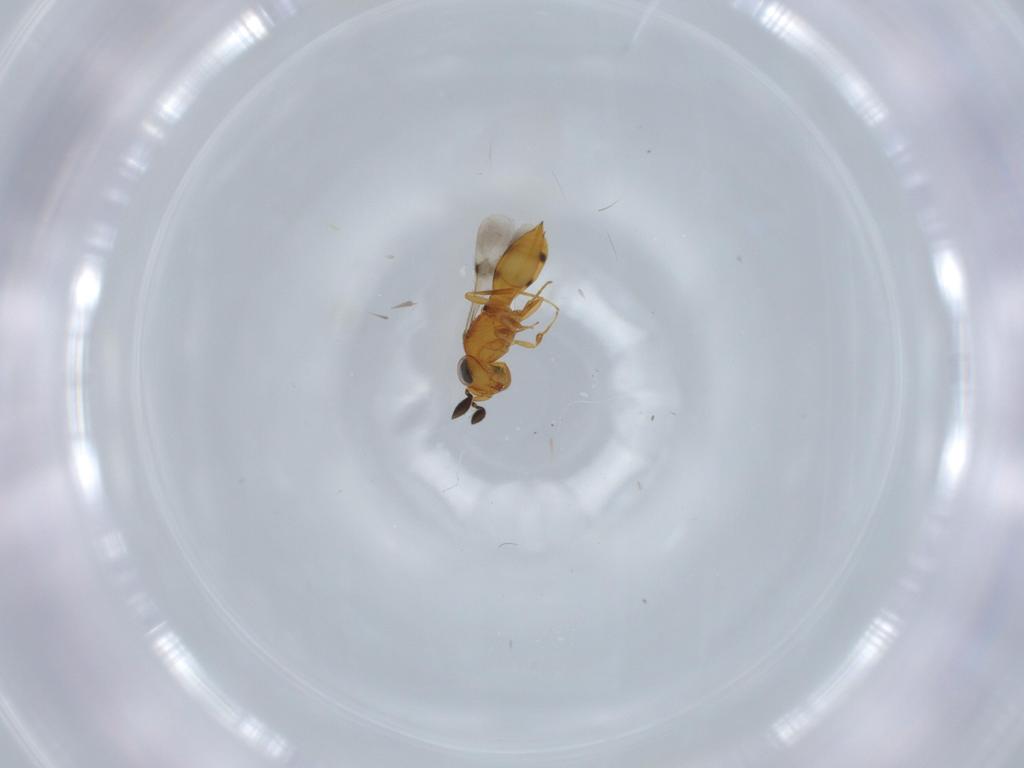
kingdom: Animalia
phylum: Arthropoda
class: Insecta
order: Hymenoptera
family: Scelionidae
